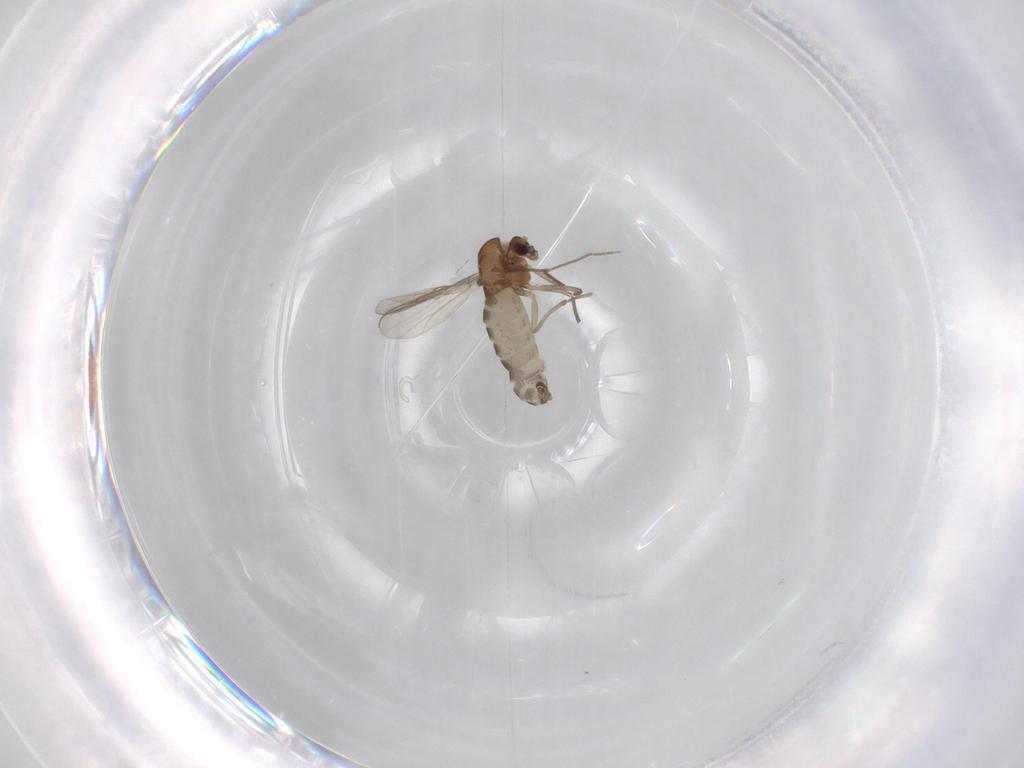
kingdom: Animalia
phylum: Arthropoda
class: Insecta
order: Diptera
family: Chironomidae
